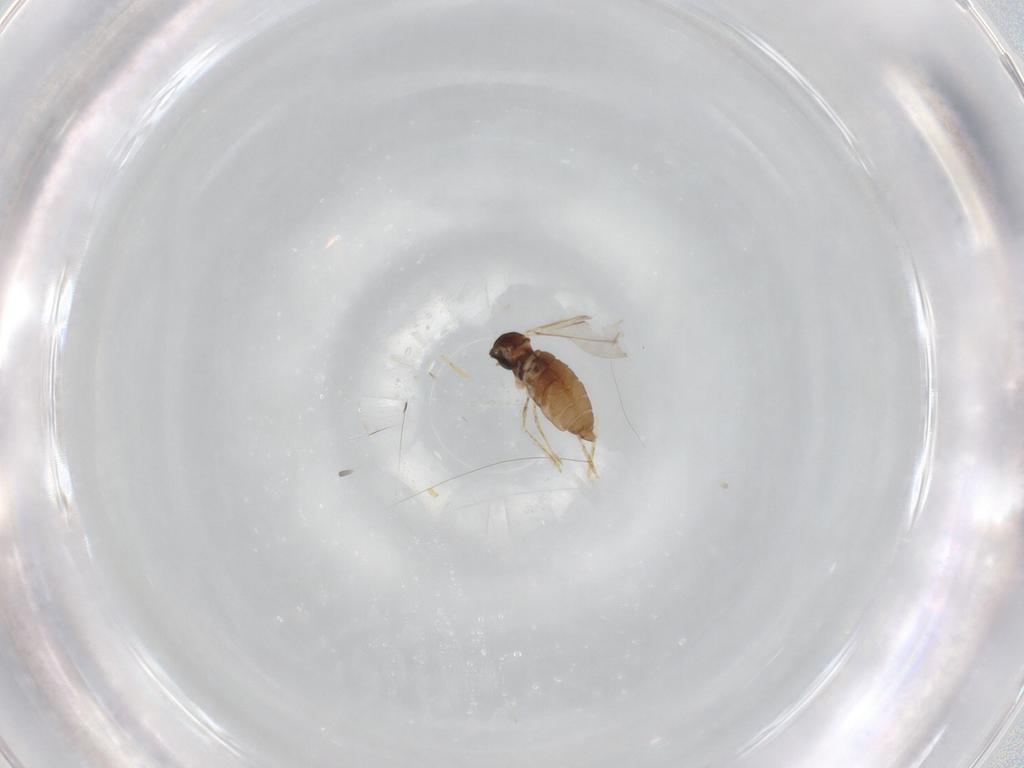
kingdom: Animalia
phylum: Arthropoda
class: Insecta
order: Diptera
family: Cecidomyiidae
